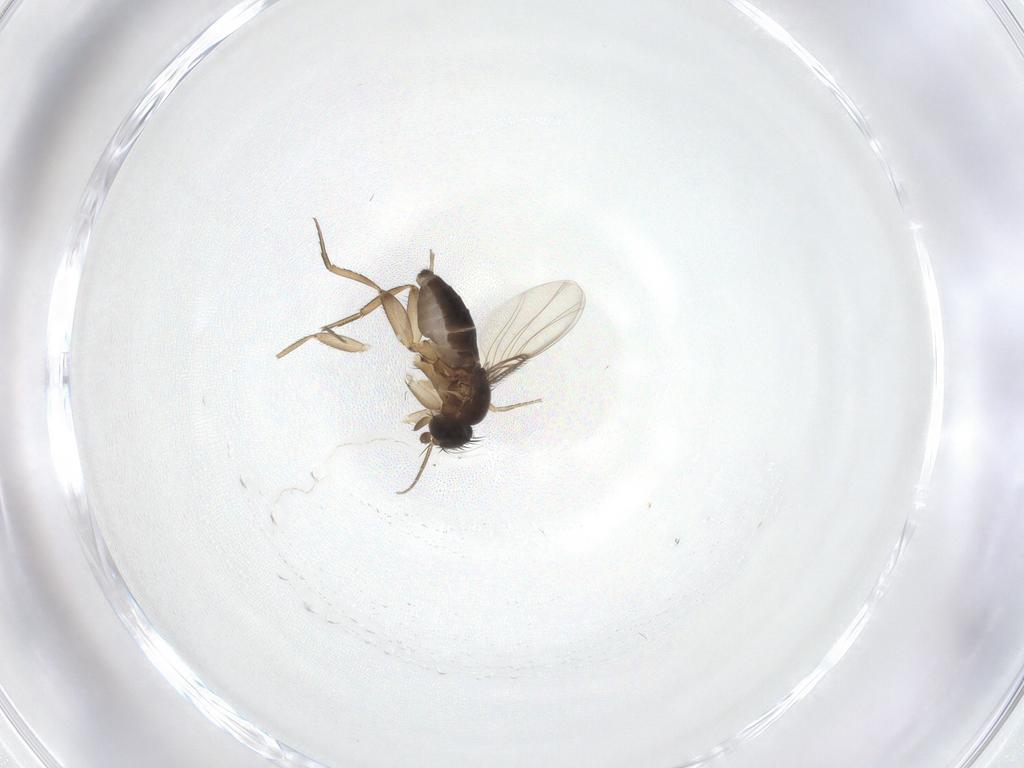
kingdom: Animalia
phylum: Arthropoda
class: Insecta
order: Diptera
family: Phoridae
